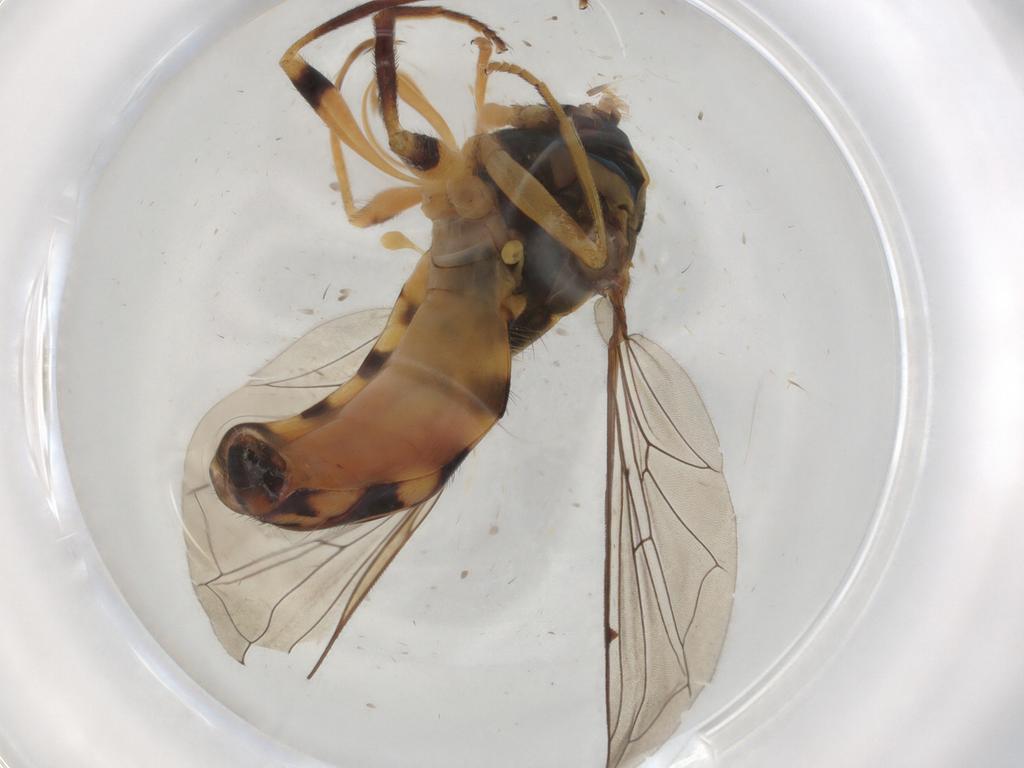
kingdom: Animalia
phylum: Arthropoda
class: Insecta
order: Diptera
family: Syrphidae
